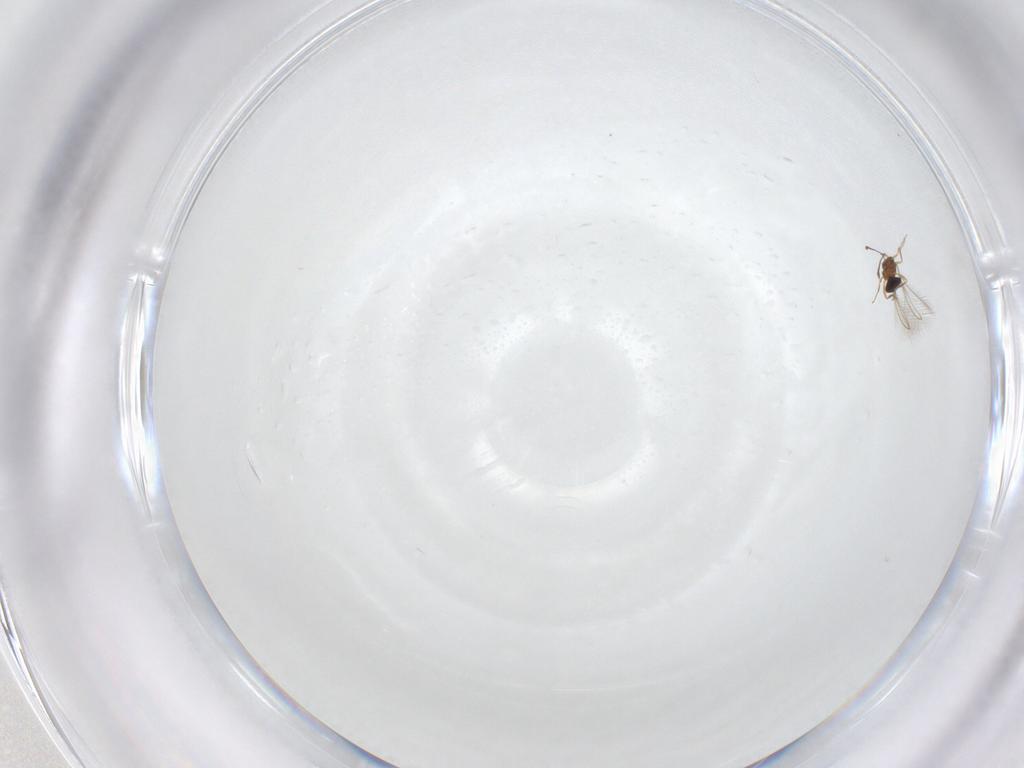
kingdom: Animalia
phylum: Arthropoda
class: Insecta
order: Hymenoptera
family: Mymaridae
